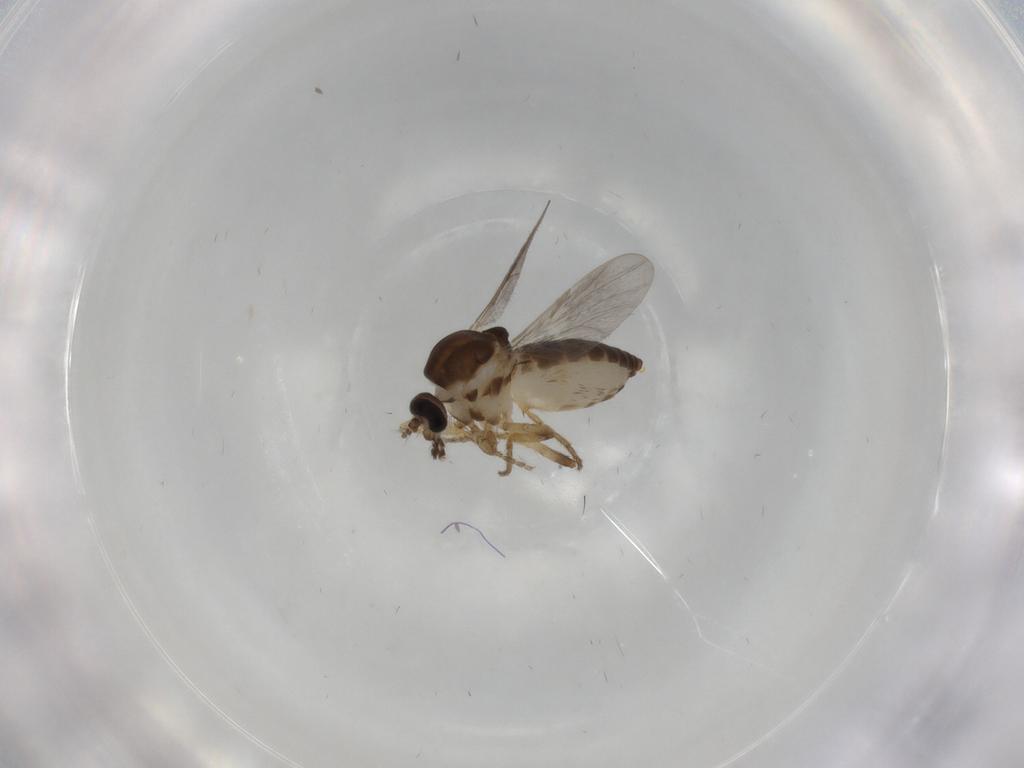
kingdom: Animalia
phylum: Arthropoda
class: Insecta
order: Diptera
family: Ceratopogonidae
